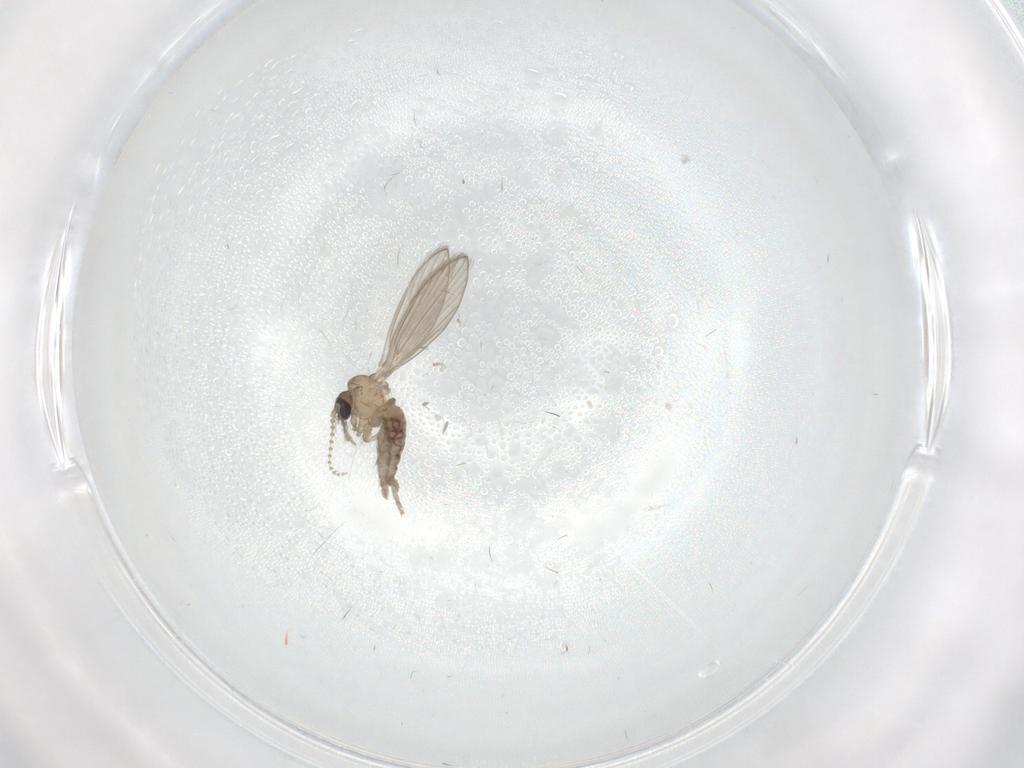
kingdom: Animalia
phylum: Arthropoda
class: Insecta
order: Diptera
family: Psychodidae
